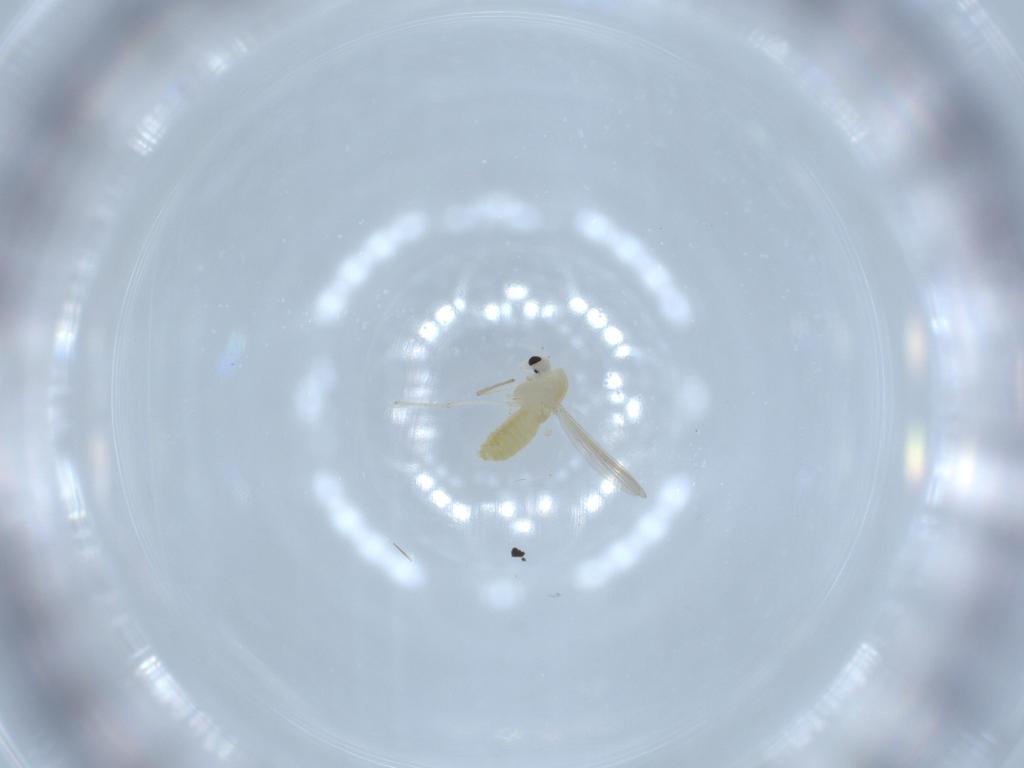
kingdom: Animalia
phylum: Arthropoda
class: Insecta
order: Diptera
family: Chironomidae
